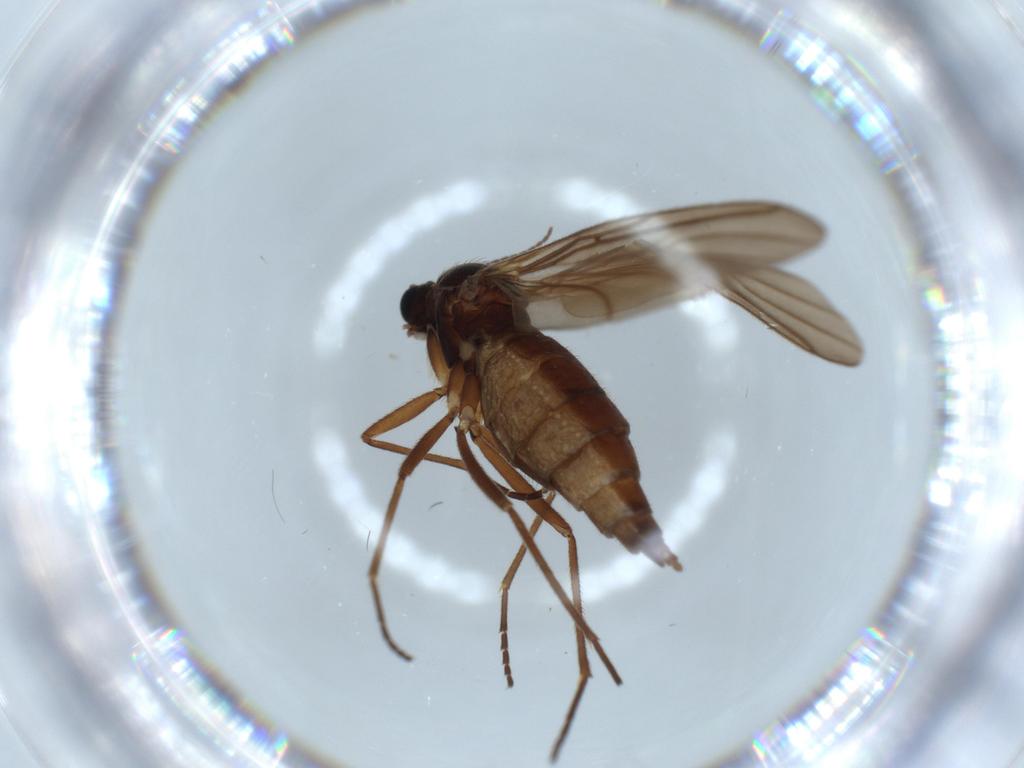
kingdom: Animalia
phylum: Arthropoda
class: Insecta
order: Diptera
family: Sciaridae
